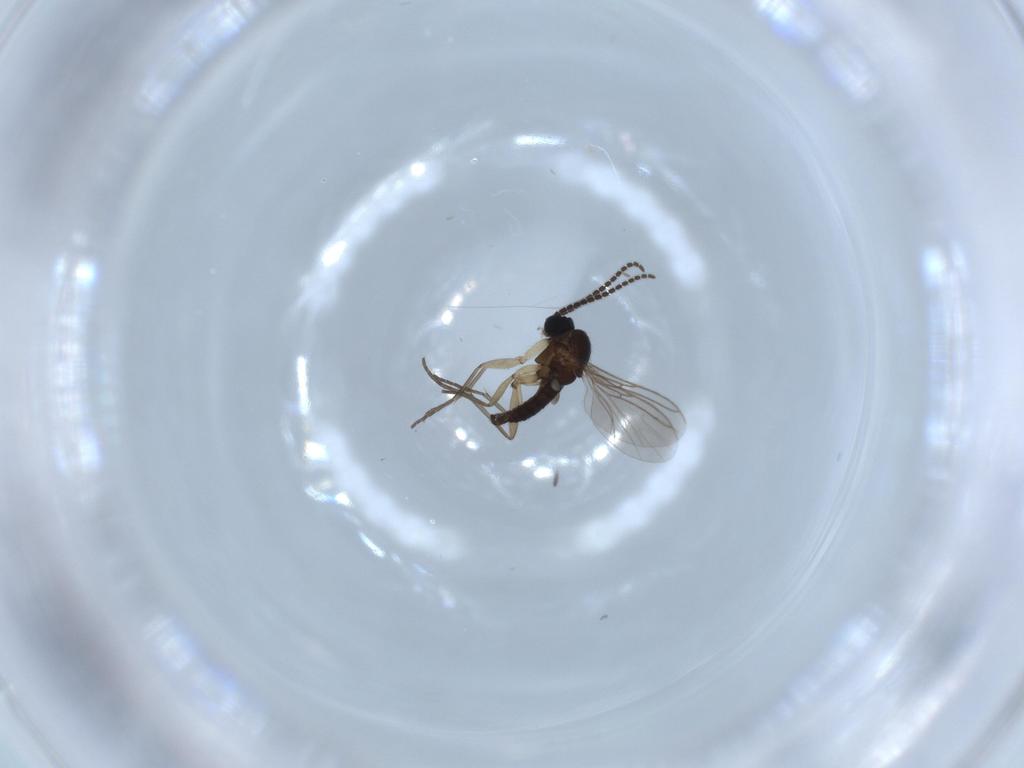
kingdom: Animalia
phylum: Arthropoda
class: Insecta
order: Diptera
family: Sciaridae
